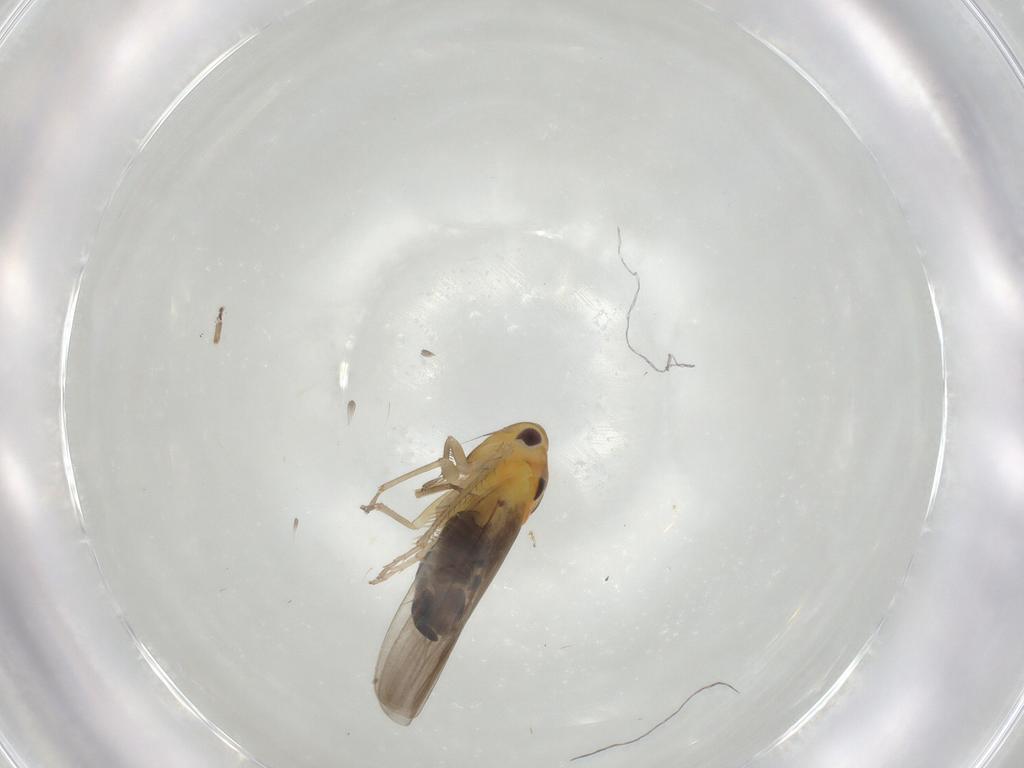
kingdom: Animalia
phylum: Arthropoda
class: Insecta
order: Hemiptera
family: Cicadellidae
